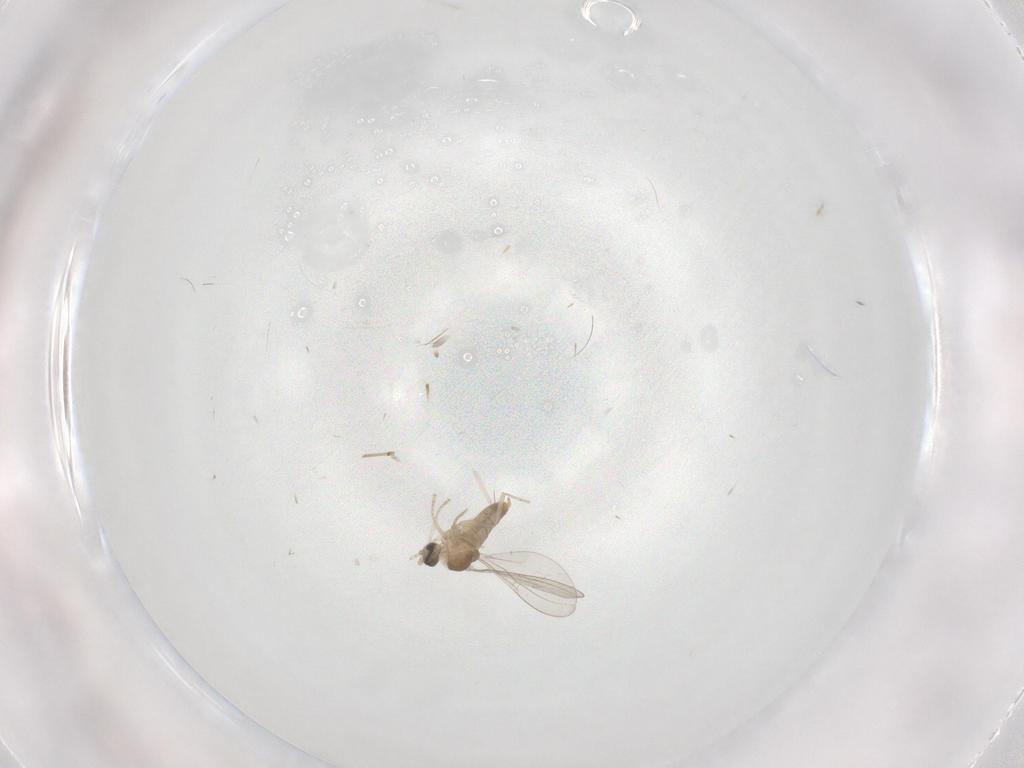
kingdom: Animalia
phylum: Arthropoda
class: Insecta
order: Diptera
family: Cecidomyiidae
